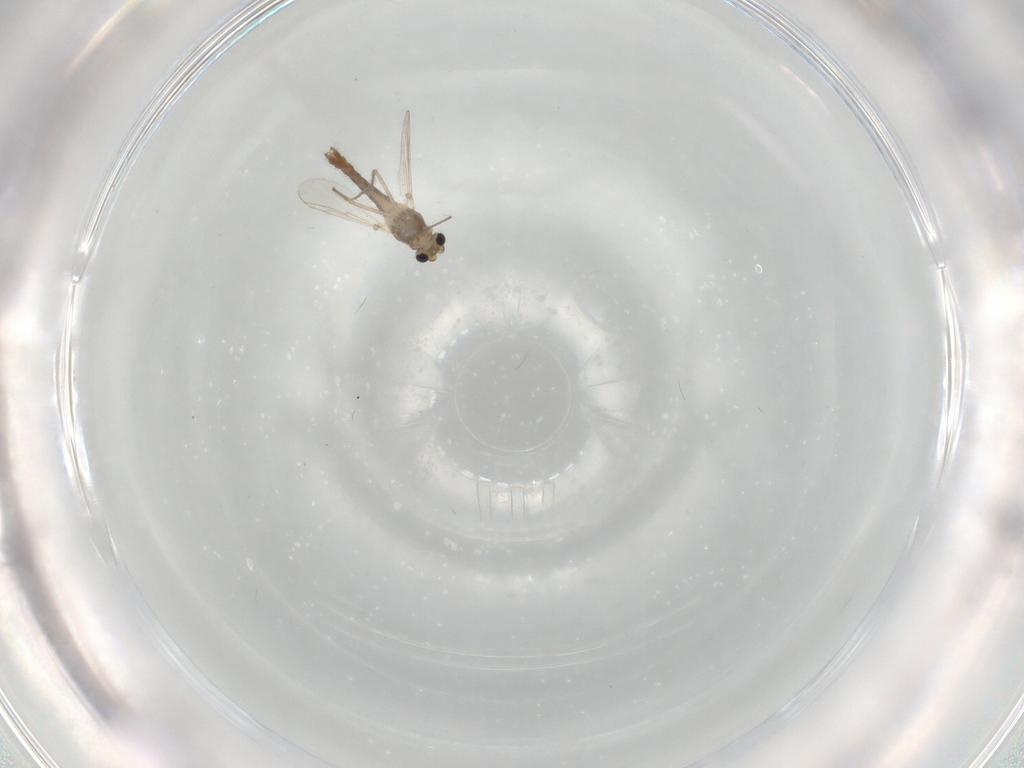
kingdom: Animalia
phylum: Arthropoda
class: Insecta
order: Diptera
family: Chironomidae
